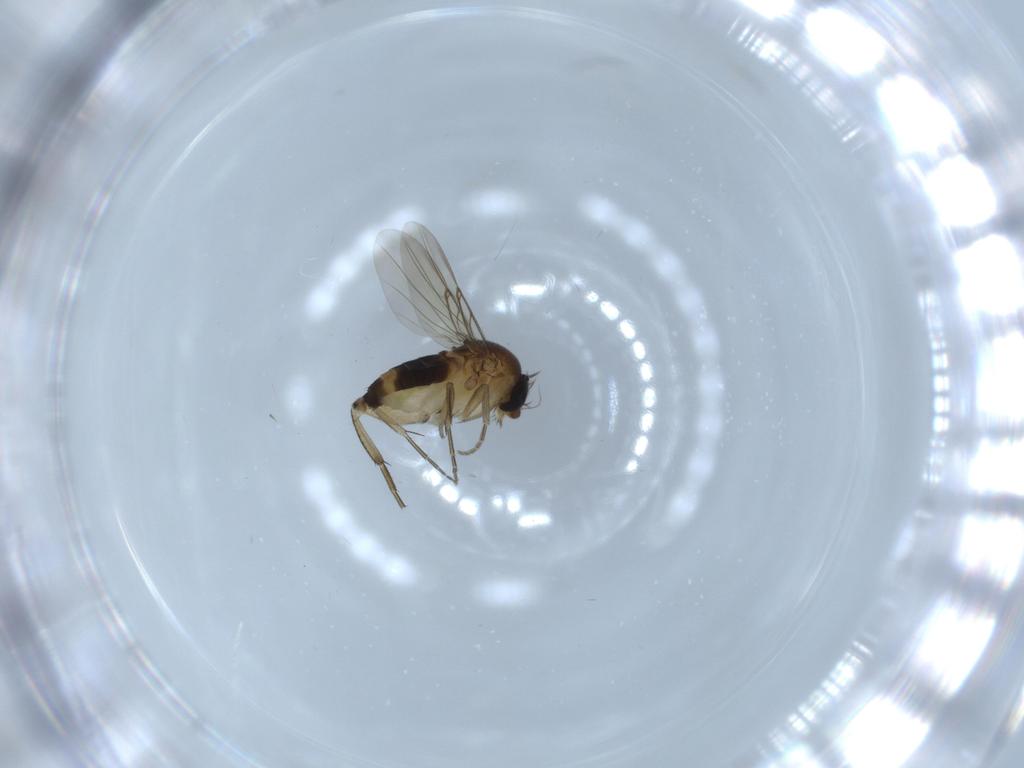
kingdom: Animalia
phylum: Arthropoda
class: Insecta
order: Diptera
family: Phoridae
